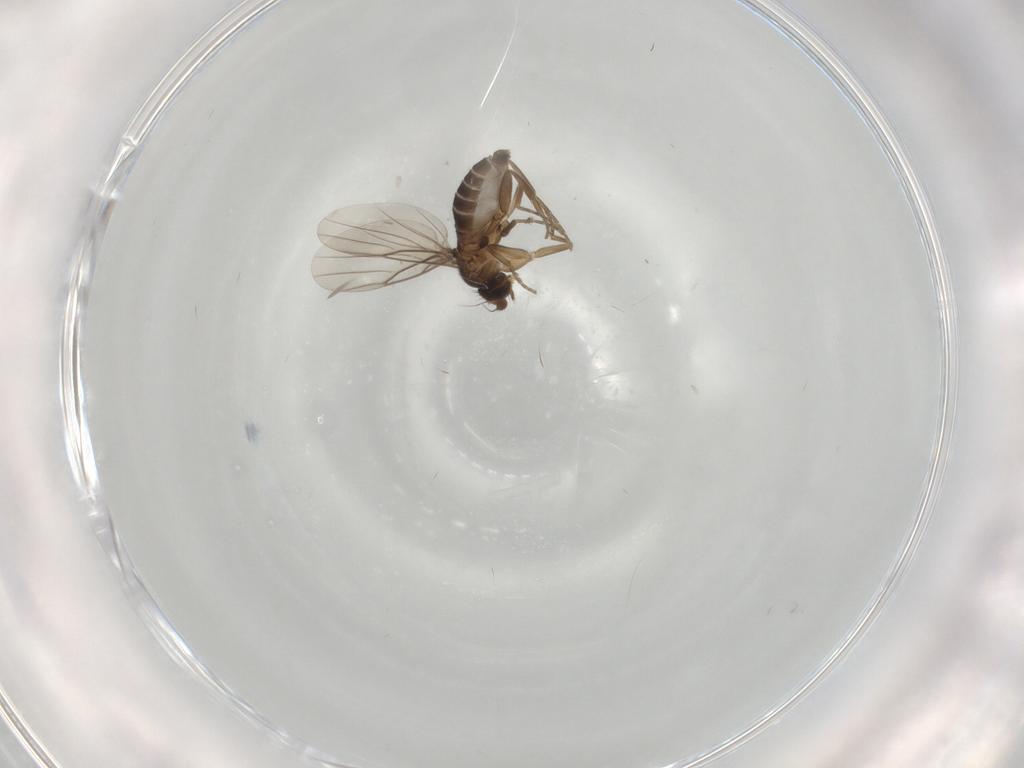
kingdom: Animalia
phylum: Arthropoda
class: Insecta
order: Diptera
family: Phoridae
